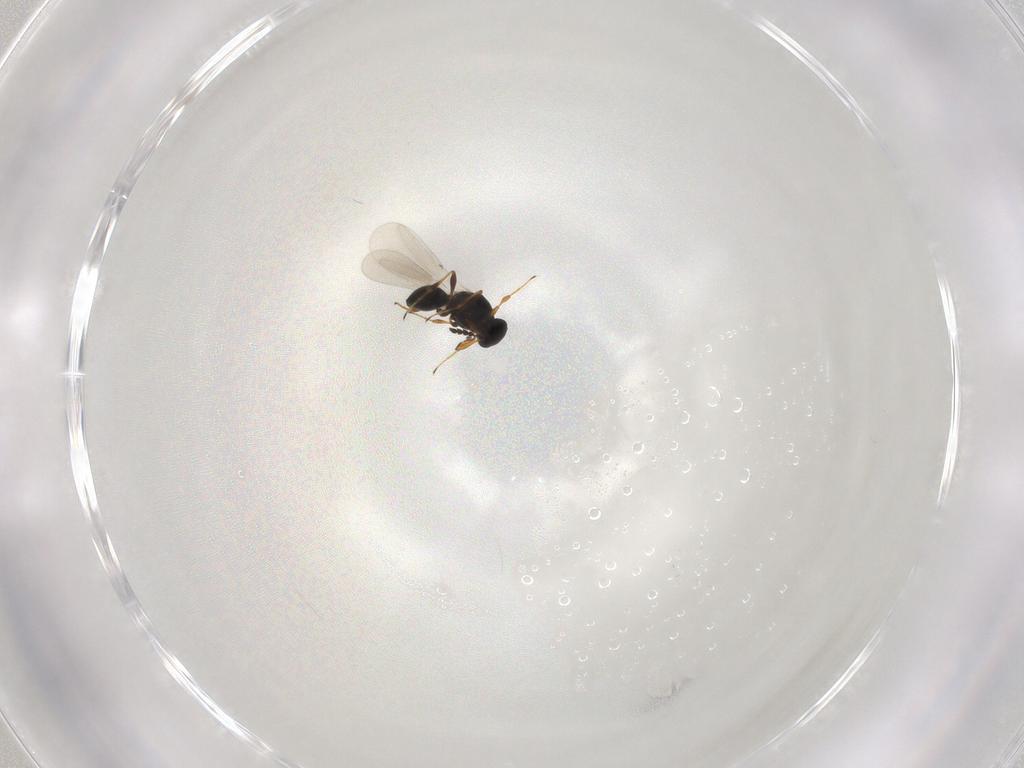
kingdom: Animalia
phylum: Arthropoda
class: Insecta
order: Hymenoptera
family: Platygastridae
